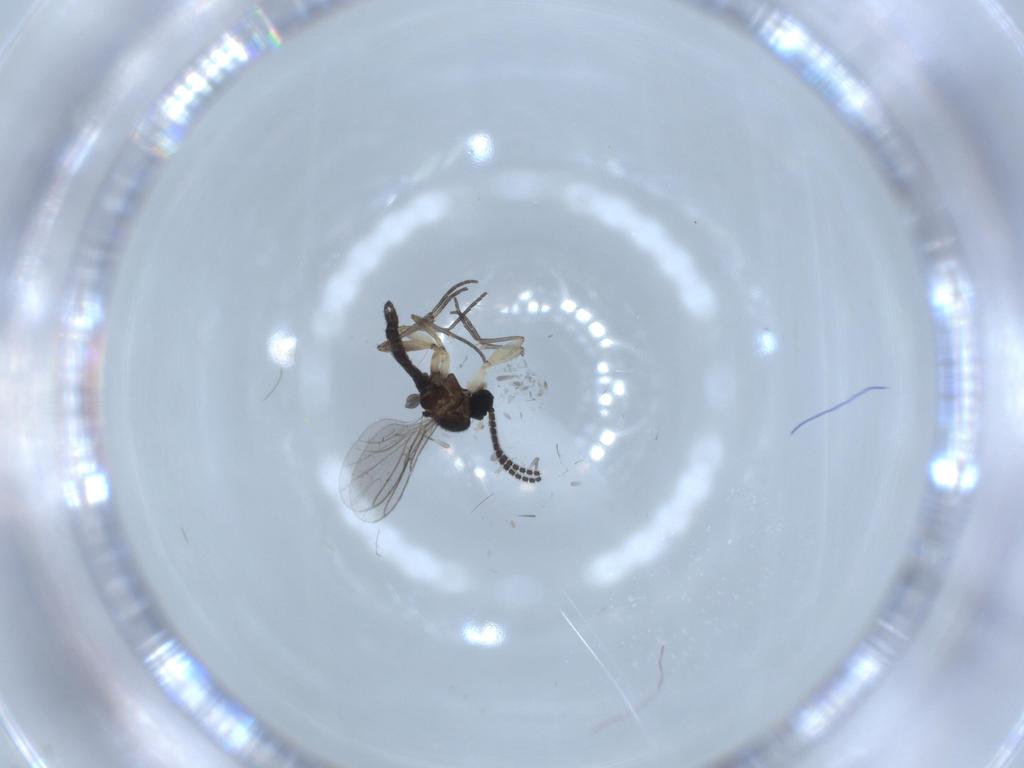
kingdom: Animalia
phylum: Arthropoda
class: Insecta
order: Diptera
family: Sciaridae
